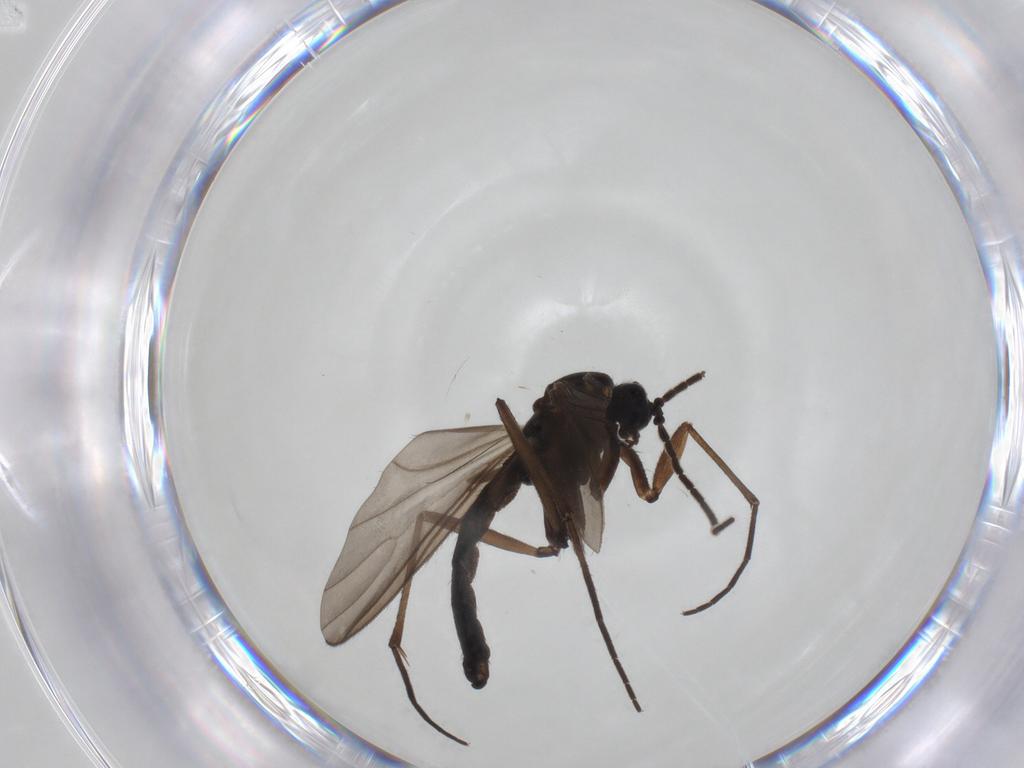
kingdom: Animalia
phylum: Arthropoda
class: Insecta
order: Diptera
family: Sciaridae
